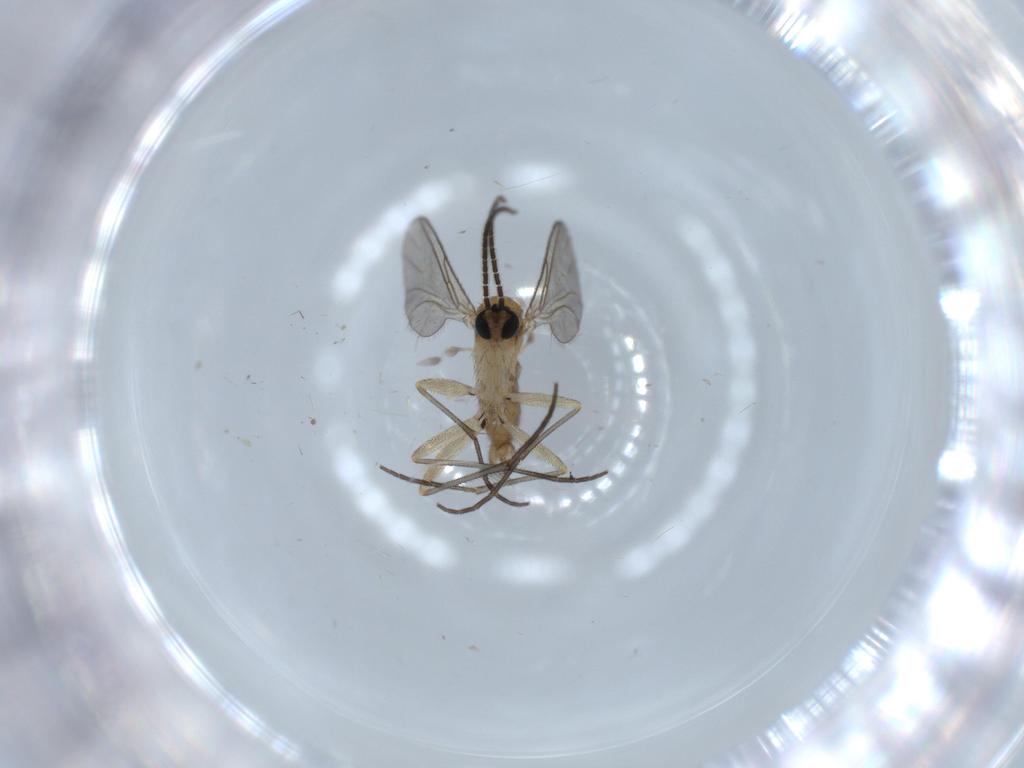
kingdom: Animalia
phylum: Arthropoda
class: Insecta
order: Diptera
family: Sciaridae
